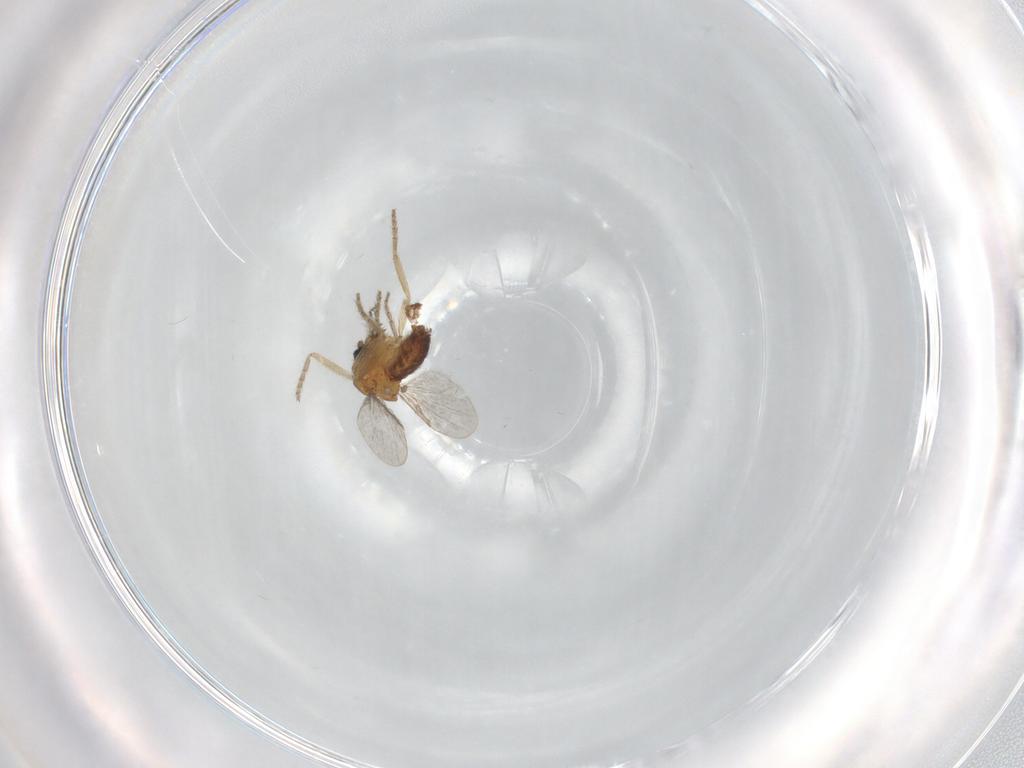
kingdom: Animalia
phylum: Arthropoda
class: Insecta
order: Diptera
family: Ceratopogonidae
